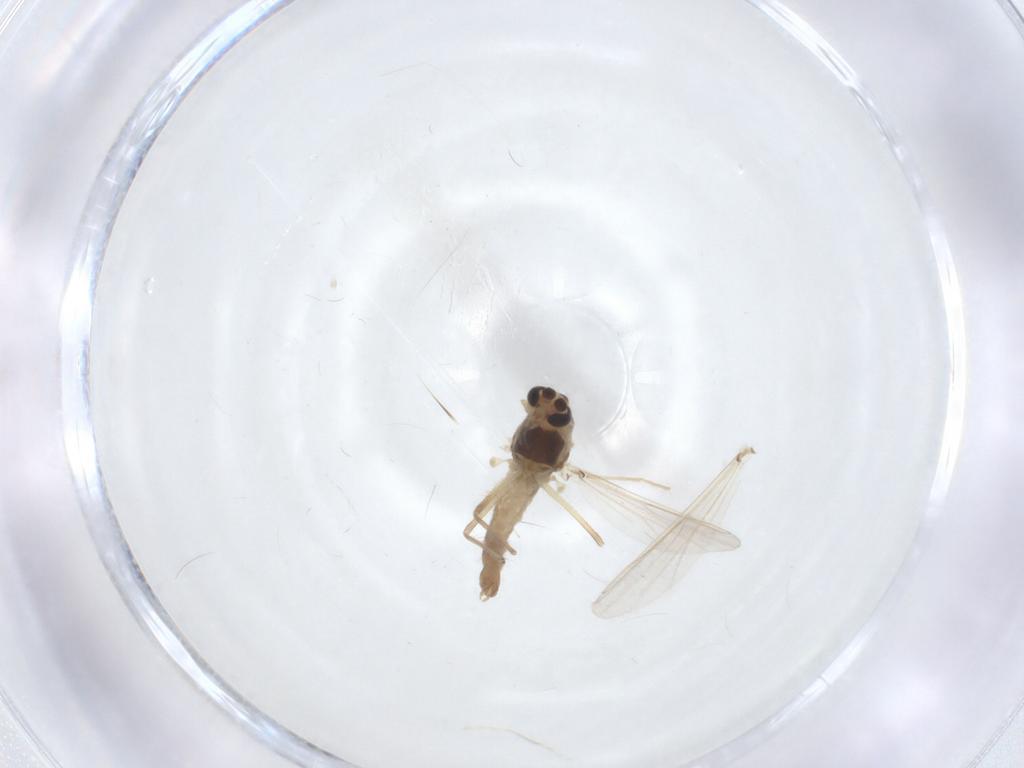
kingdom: Animalia
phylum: Arthropoda
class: Insecta
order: Diptera
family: Chironomidae
